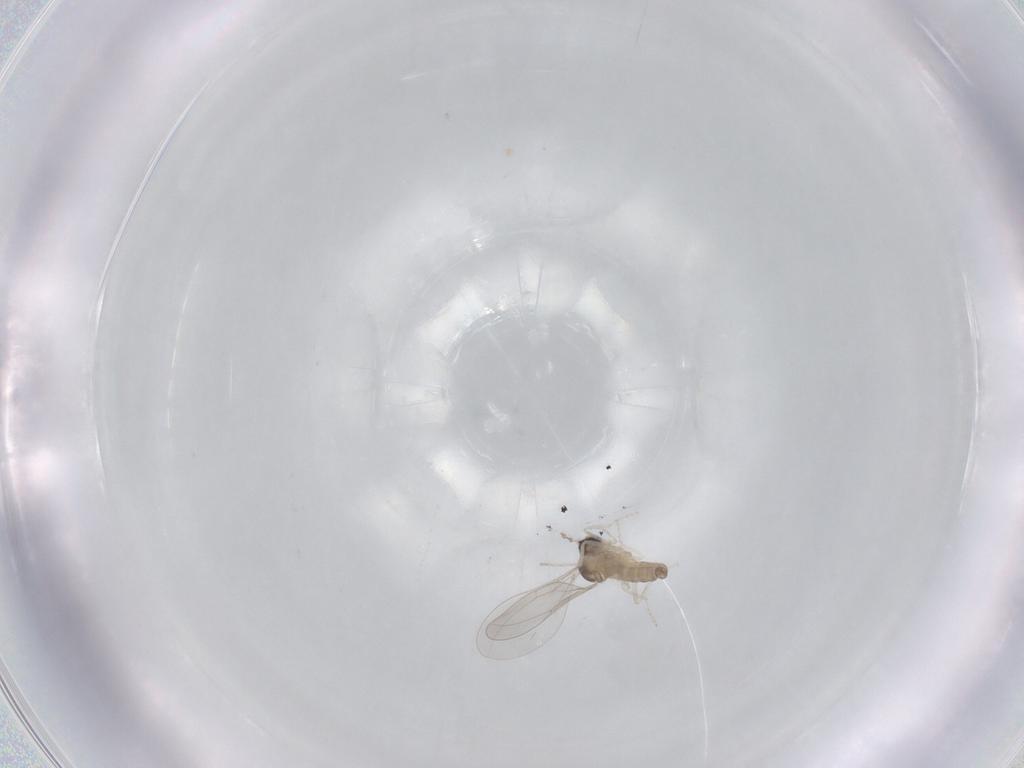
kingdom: Animalia
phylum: Arthropoda
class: Insecta
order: Diptera
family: Cecidomyiidae
